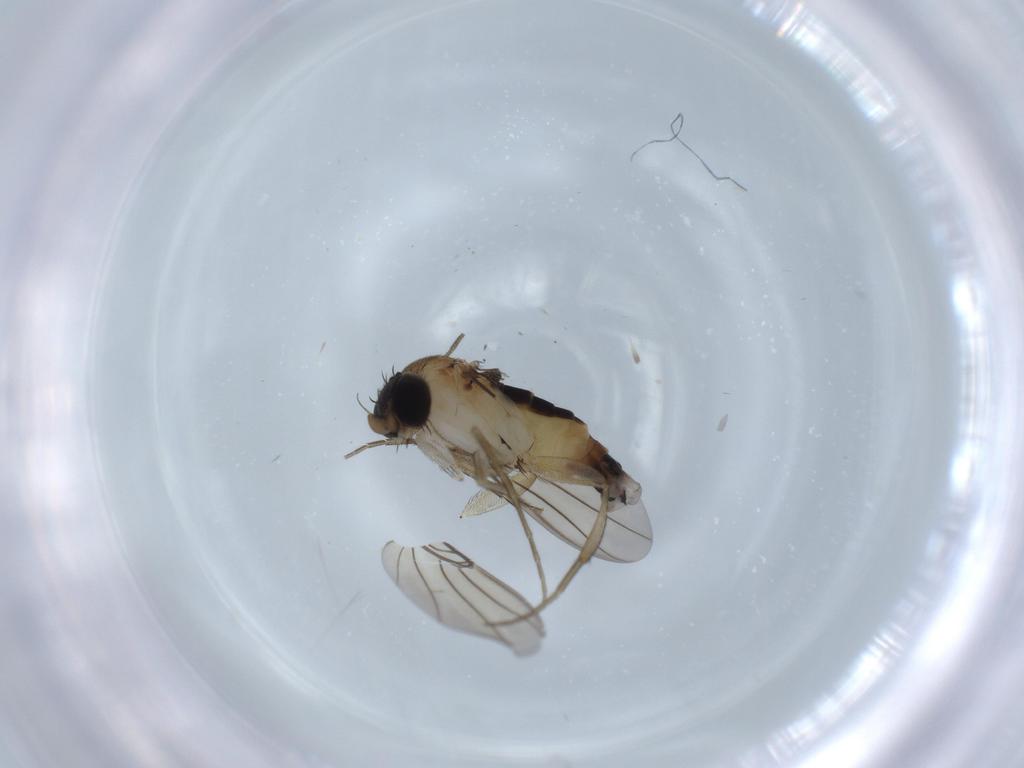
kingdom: Animalia
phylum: Arthropoda
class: Insecta
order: Diptera
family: Phoridae
